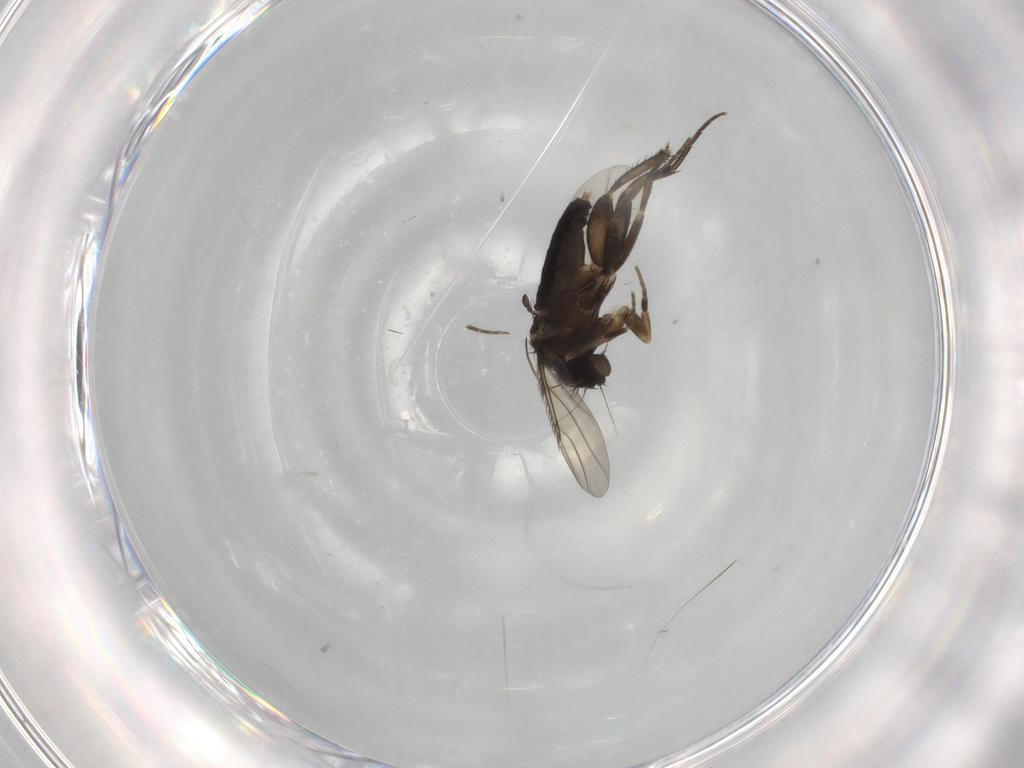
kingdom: Animalia
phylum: Arthropoda
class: Insecta
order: Diptera
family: Phoridae
